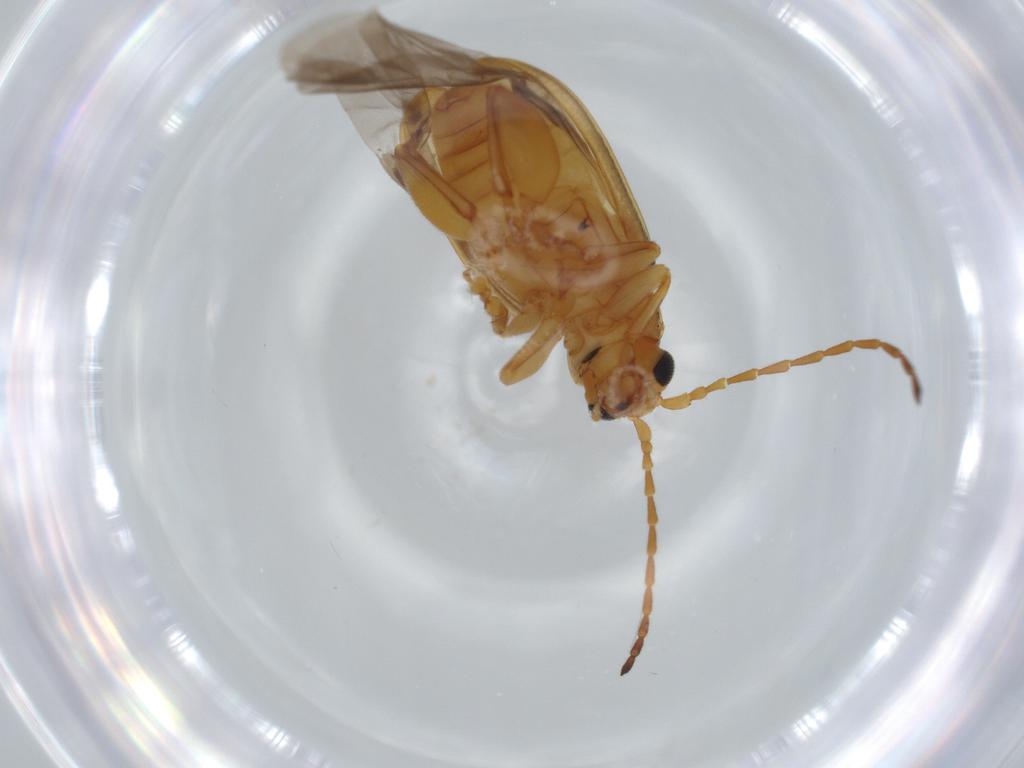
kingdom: Animalia
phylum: Arthropoda
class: Insecta
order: Coleoptera
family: Chrysomelidae
